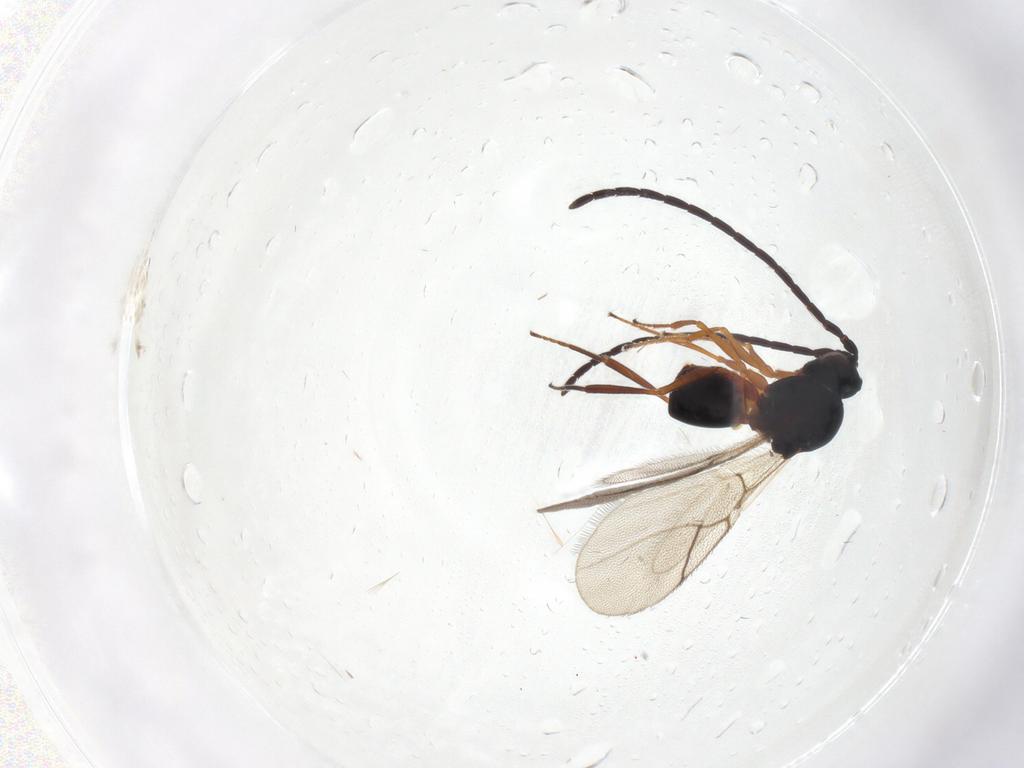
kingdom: Animalia
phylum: Arthropoda
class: Insecta
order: Hymenoptera
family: Figitidae
